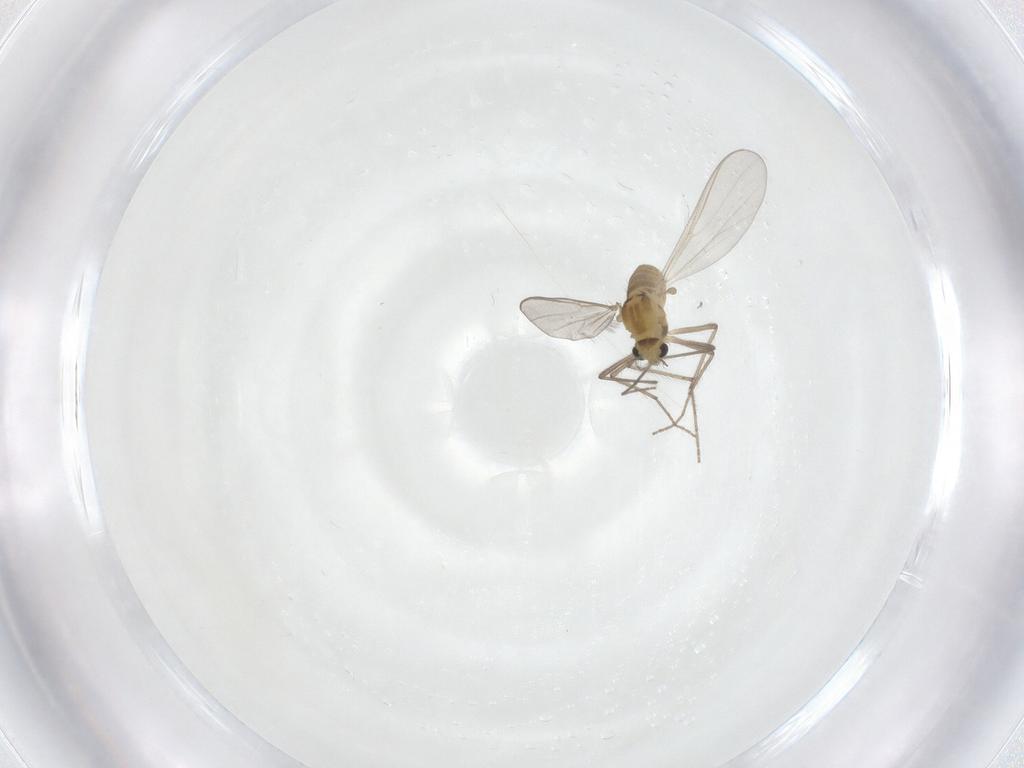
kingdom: Animalia
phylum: Arthropoda
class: Insecta
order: Diptera
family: Chironomidae
